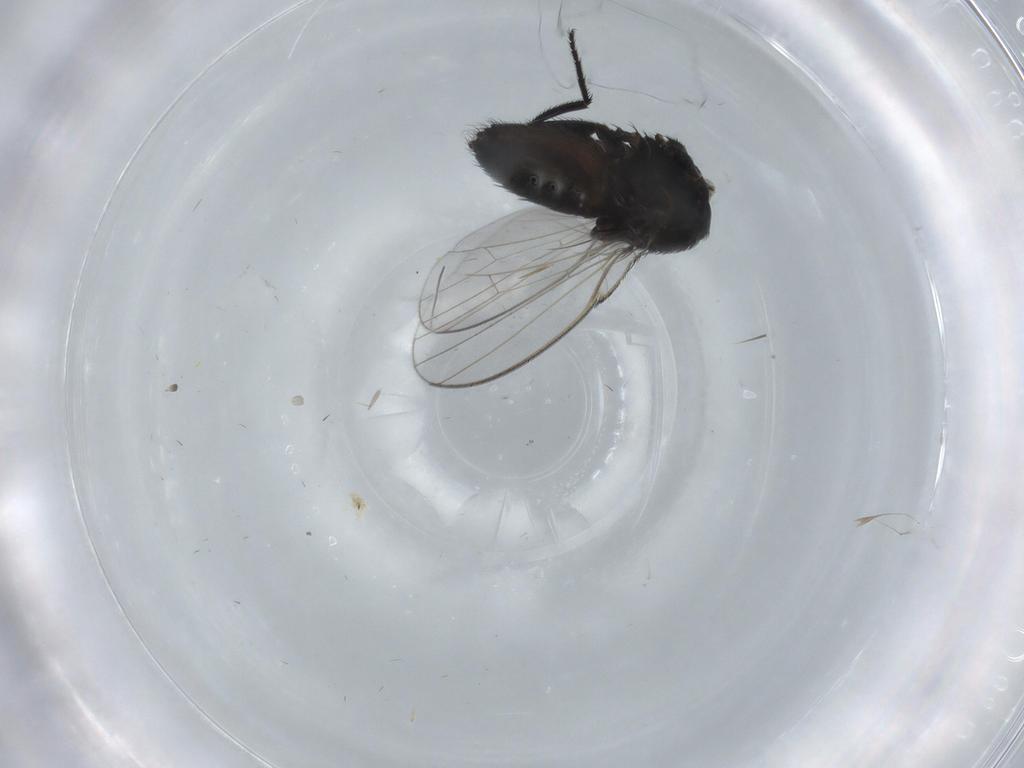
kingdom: Animalia
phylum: Arthropoda
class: Insecta
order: Diptera
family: Milichiidae
